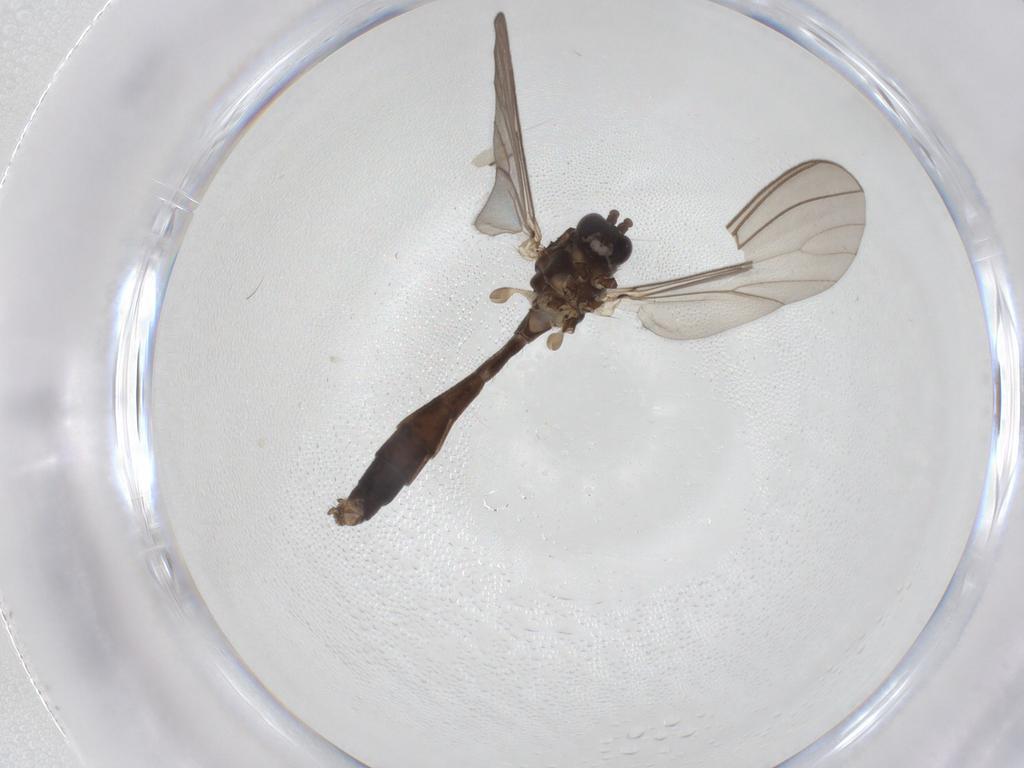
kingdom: Animalia
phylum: Arthropoda
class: Insecta
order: Diptera
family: Mycetophilidae
